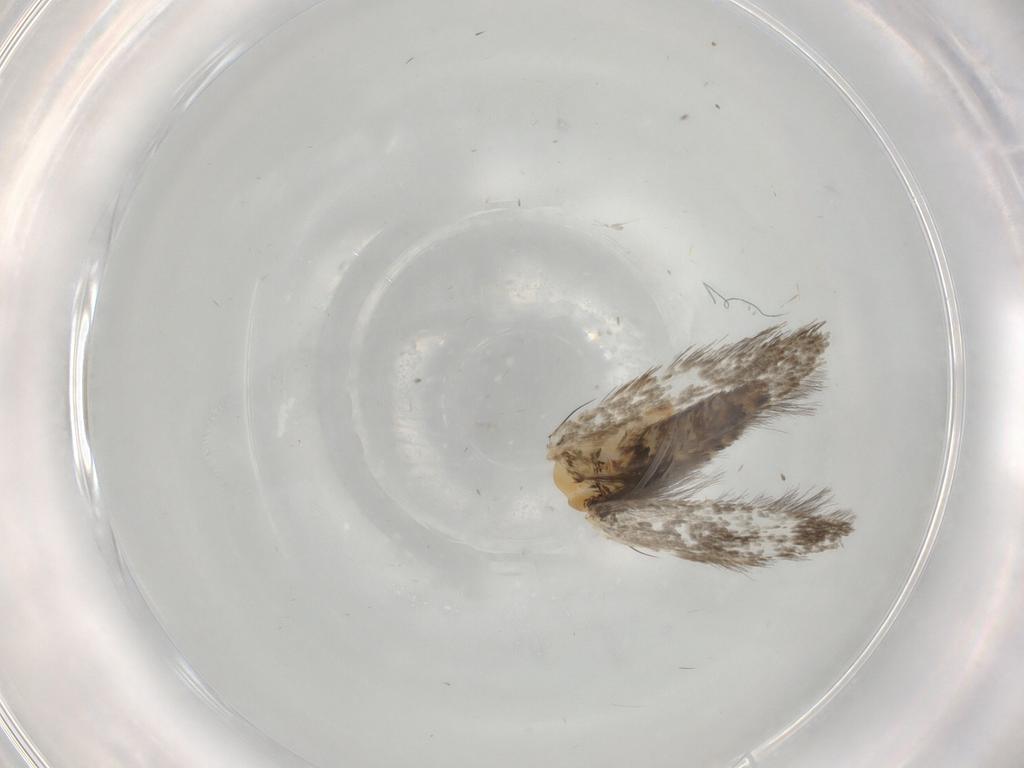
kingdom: Animalia
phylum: Arthropoda
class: Insecta
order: Lepidoptera
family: Tineidae
